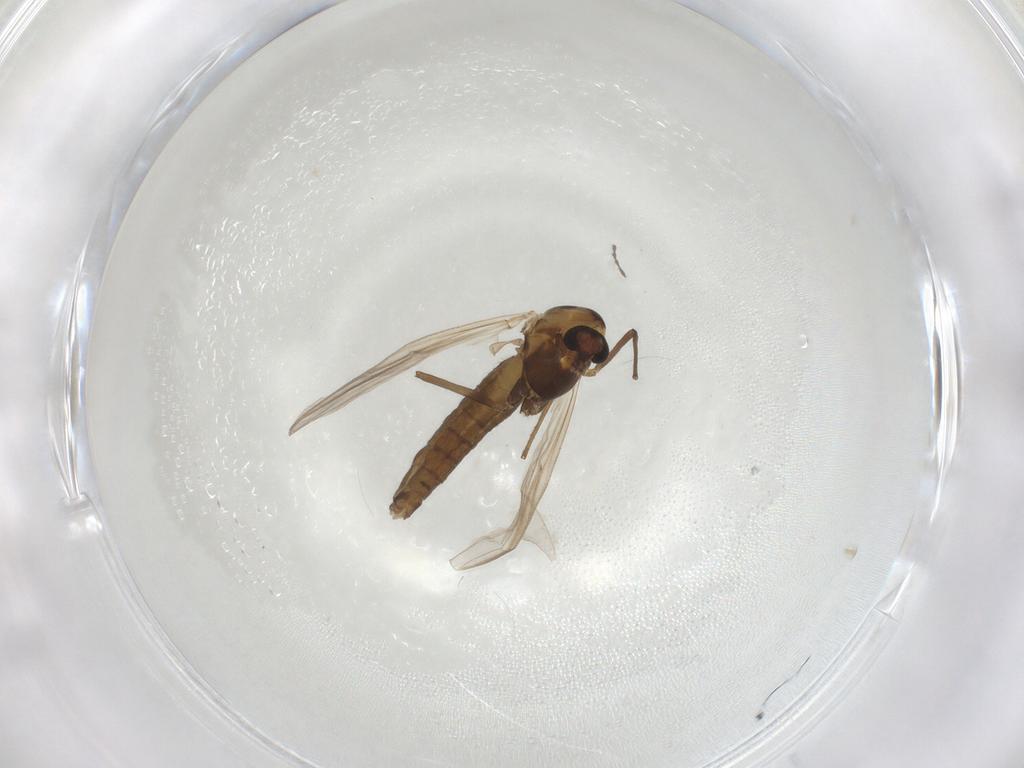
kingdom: Animalia
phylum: Arthropoda
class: Insecta
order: Diptera
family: Chironomidae
